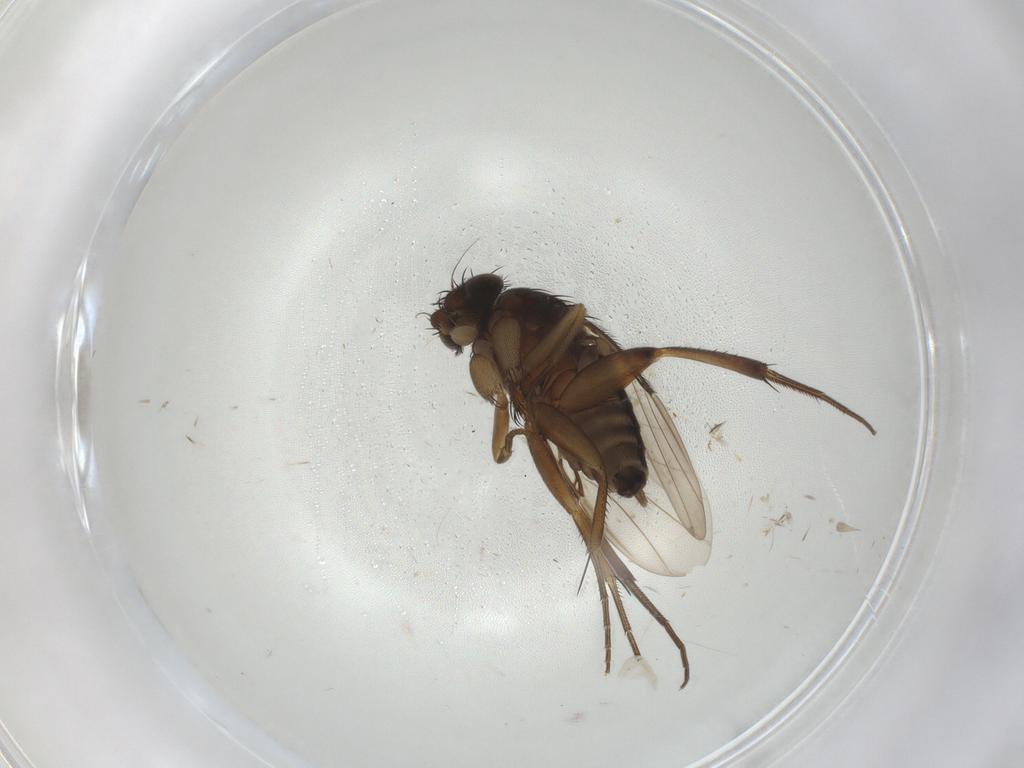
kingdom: Animalia
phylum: Arthropoda
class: Insecta
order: Diptera
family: Phoridae
